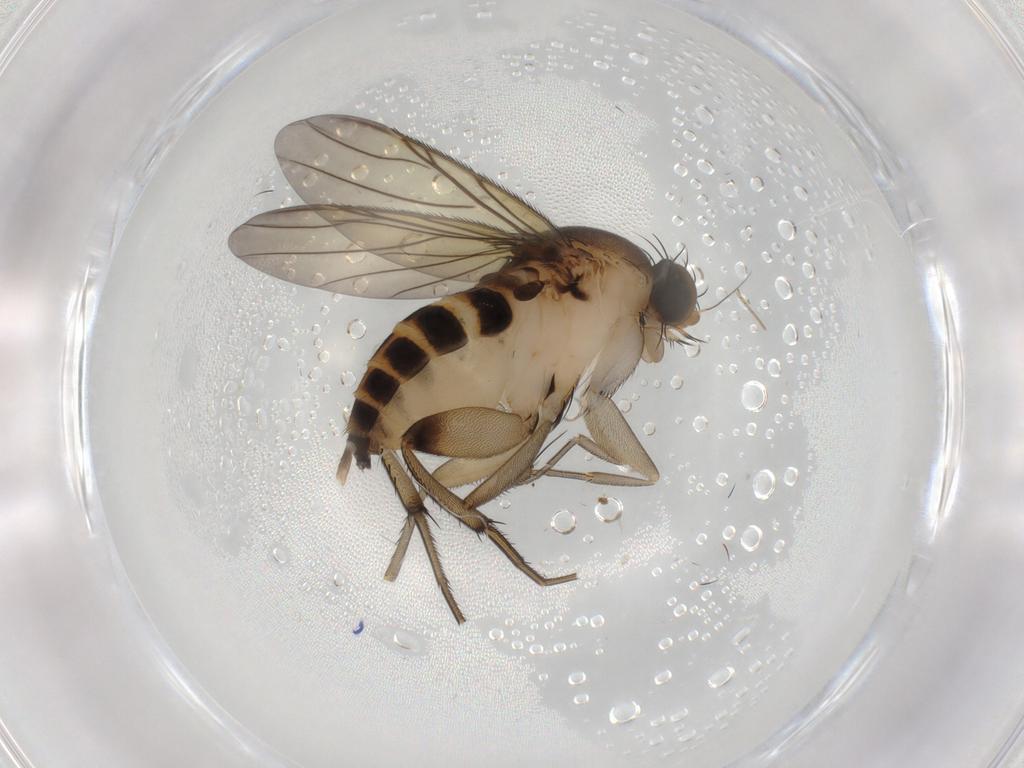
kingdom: Animalia
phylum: Arthropoda
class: Insecta
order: Diptera
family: Phoridae
